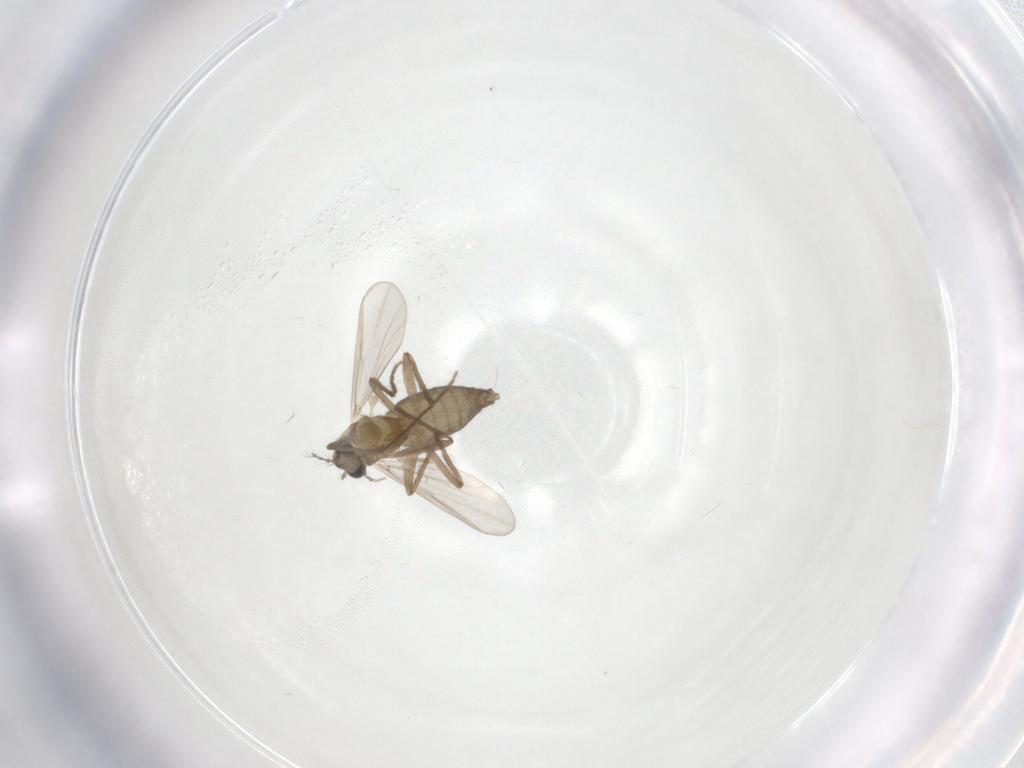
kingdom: Animalia
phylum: Arthropoda
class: Insecta
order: Diptera
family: Chironomidae
